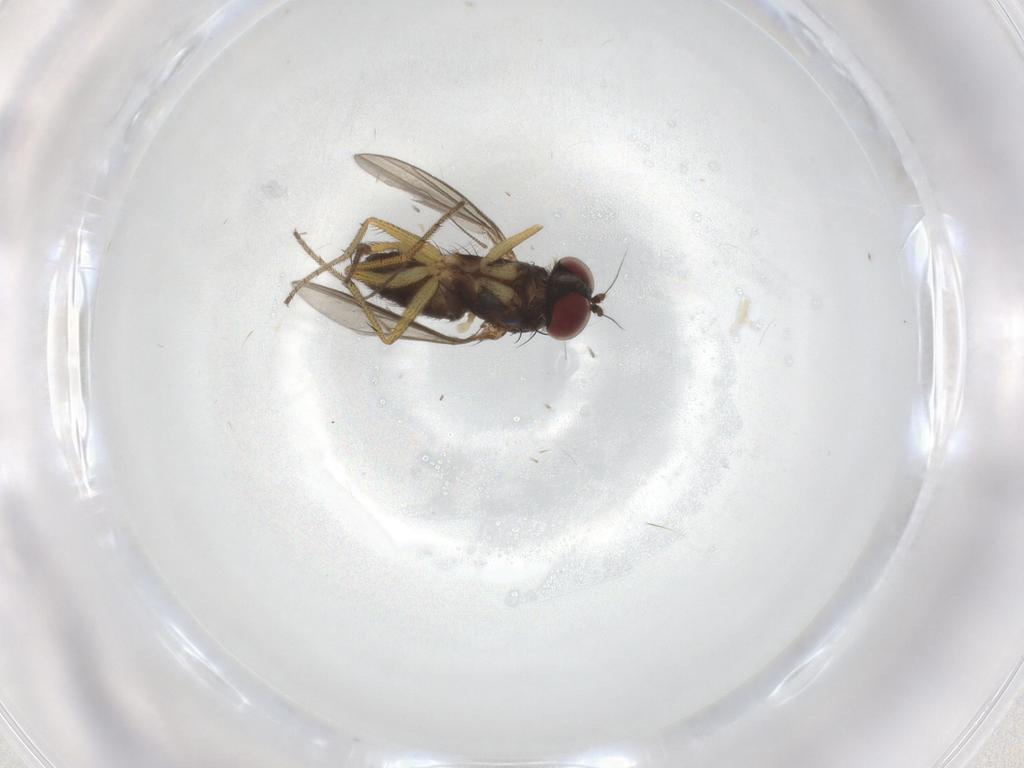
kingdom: Animalia
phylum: Arthropoda
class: Insecta
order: Diptera
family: Dolichopodidae
